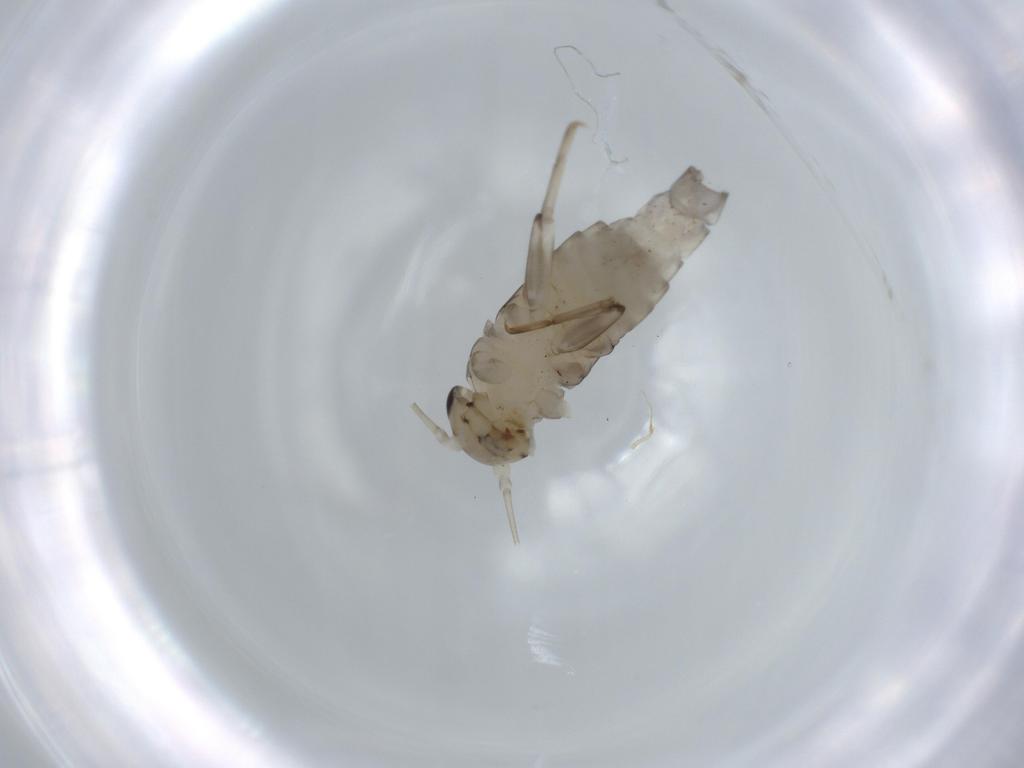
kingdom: Animalia
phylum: Arthropoda
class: Insecta
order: Ephemeroptera
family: Baetidae
